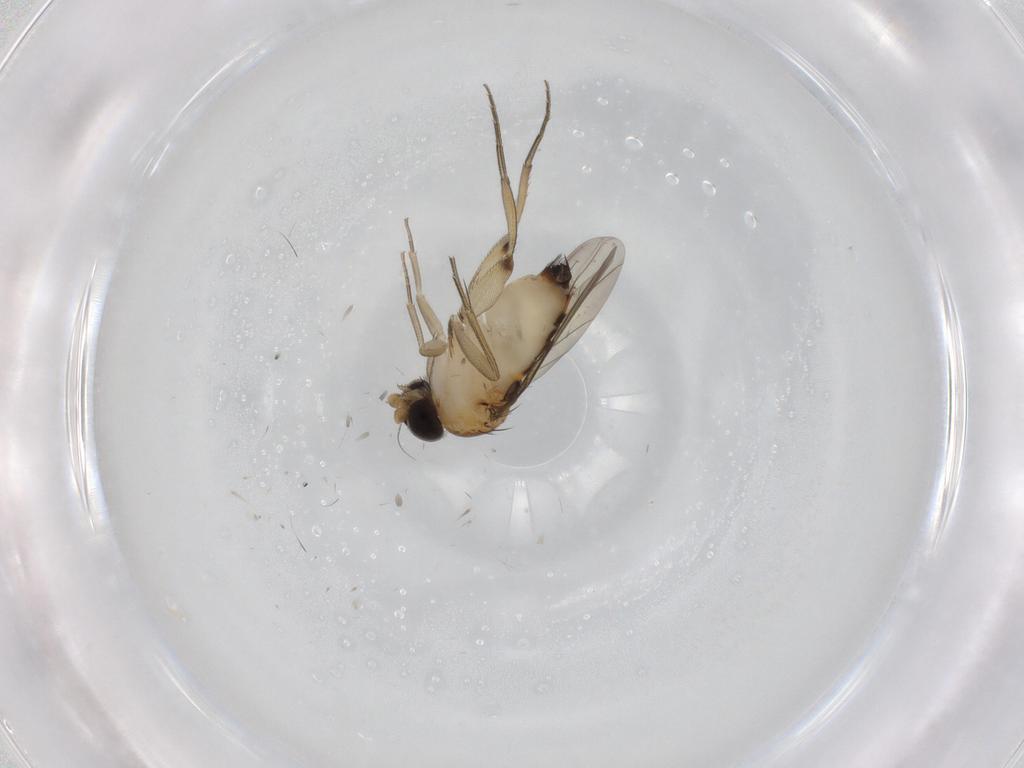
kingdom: Animalia
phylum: Arthropoda
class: Insecta
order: Diptera
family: Phoridae
